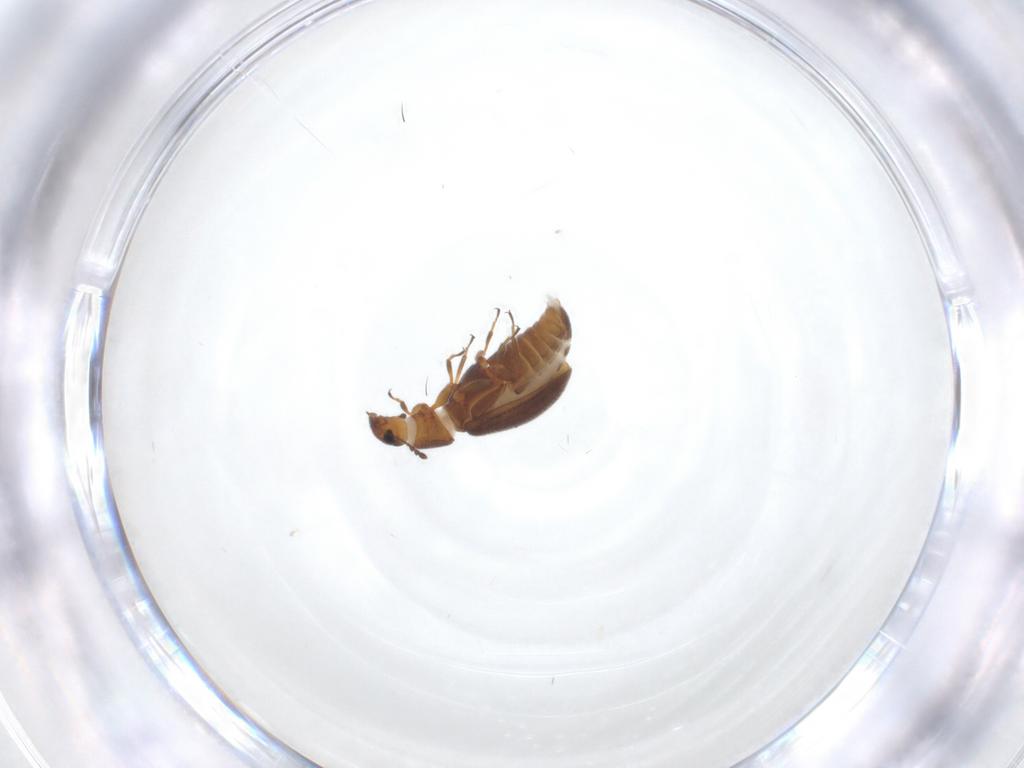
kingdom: Animalia
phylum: Arthropoda
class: Insecta
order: Coleoptera
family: Latridiidae
